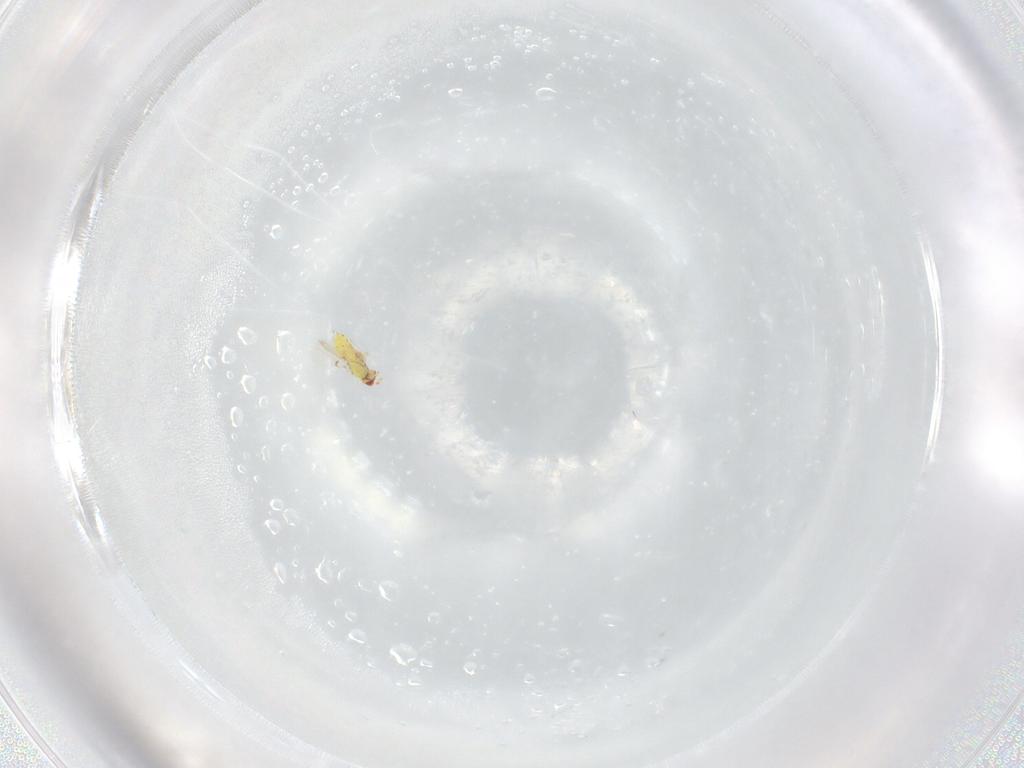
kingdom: Animalia
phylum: Arthropoda
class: Insecta
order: Hymenoptera
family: Trichogrammatidae
